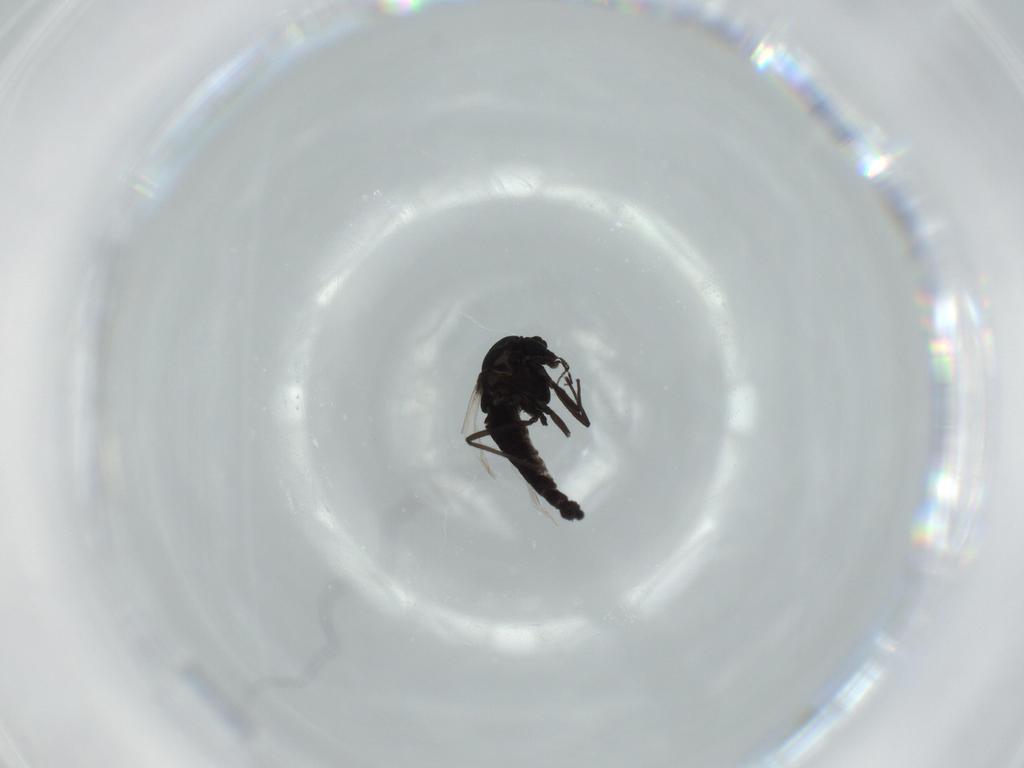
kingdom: Animalia
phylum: Arthropoda
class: Insecta
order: Diptera
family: Chironomidae
